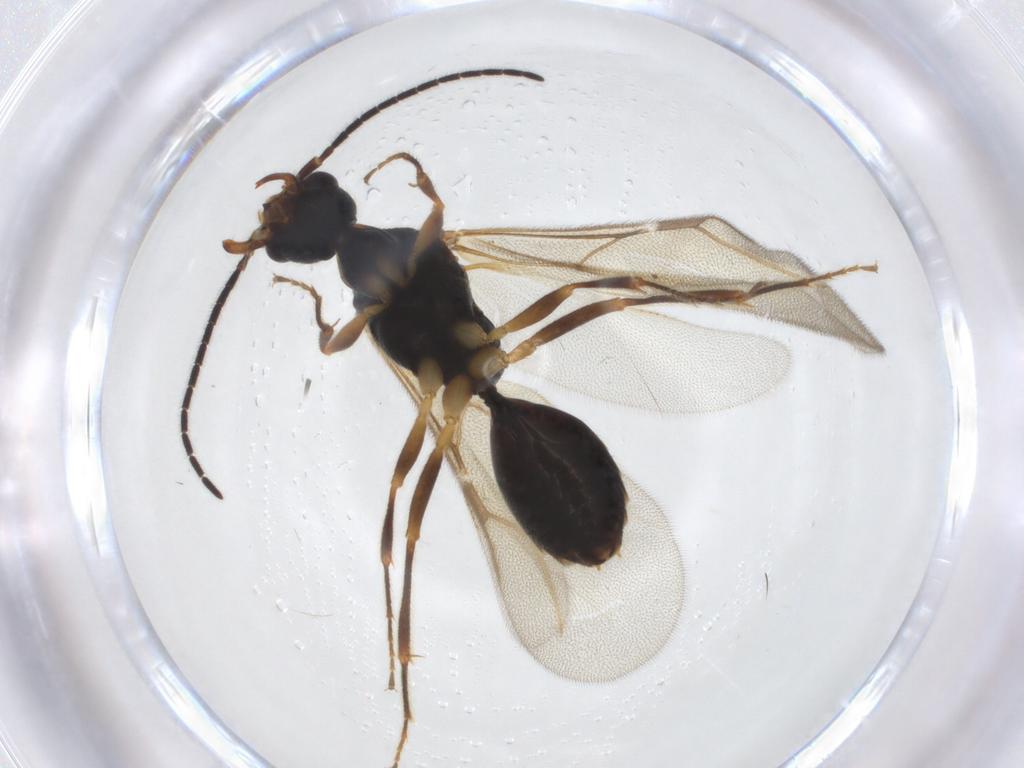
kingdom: Animalia
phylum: Arthropoda
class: Insecta
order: Hymenoptera
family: Bethylidae
